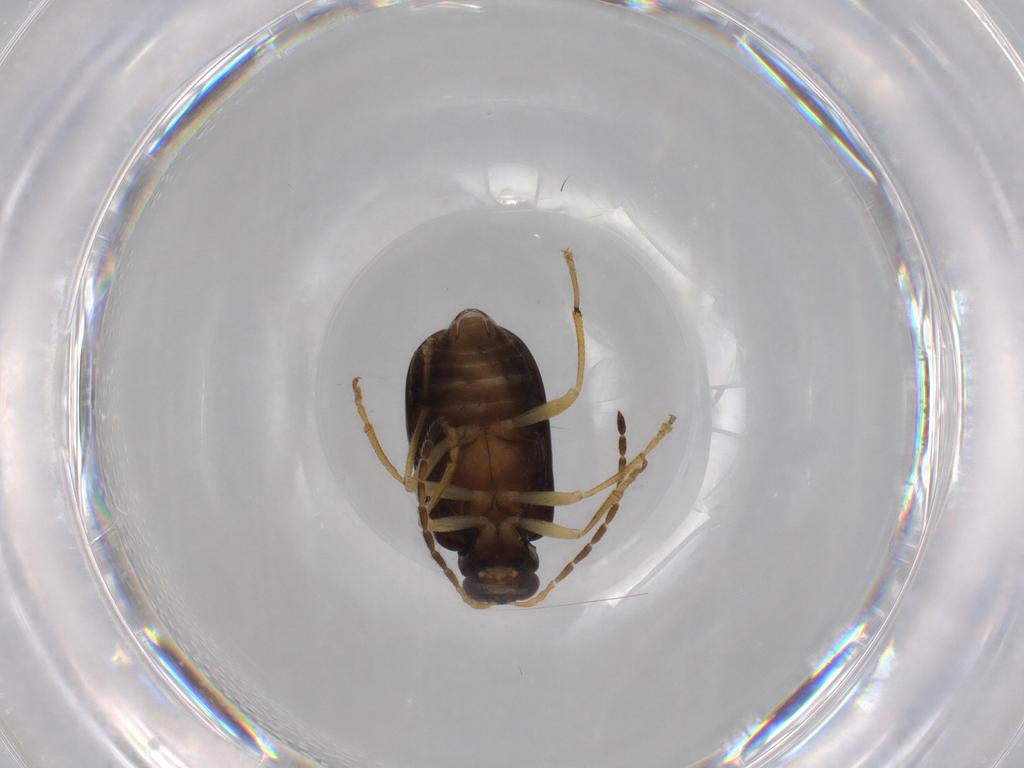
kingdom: Animalia
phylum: Arthropoda
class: Insecta
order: Coleoptera
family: Chrysomelidae
